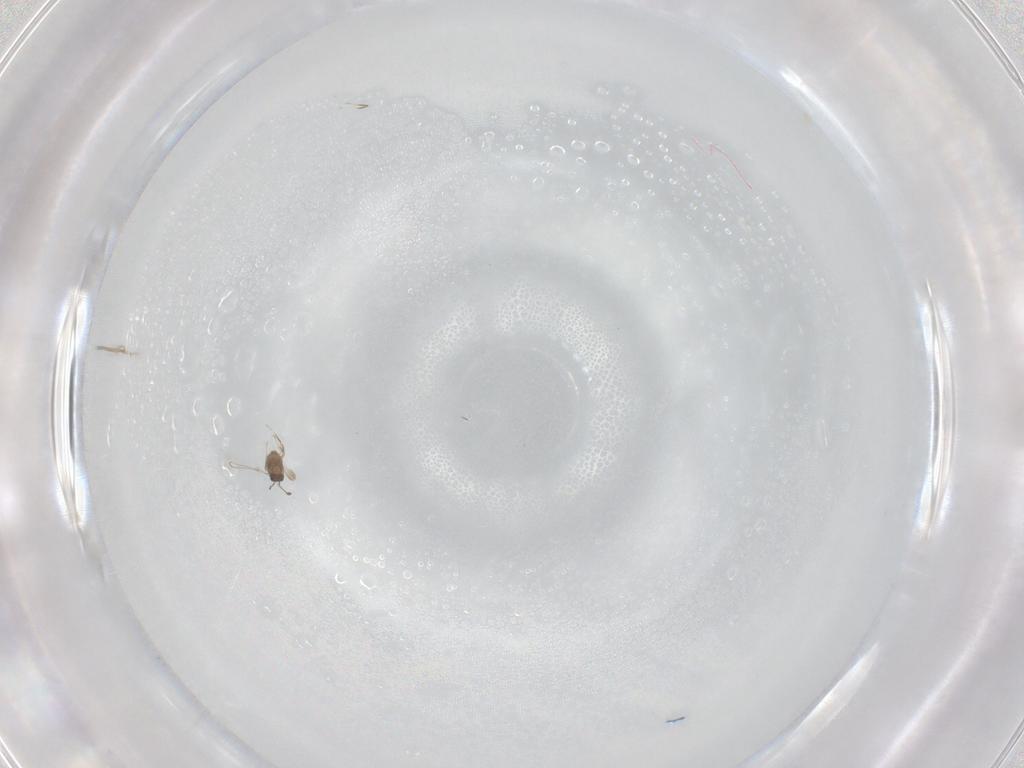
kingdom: Animalia
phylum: Arthropoda
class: Insecta
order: Hymenoptera
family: Mymaridae
